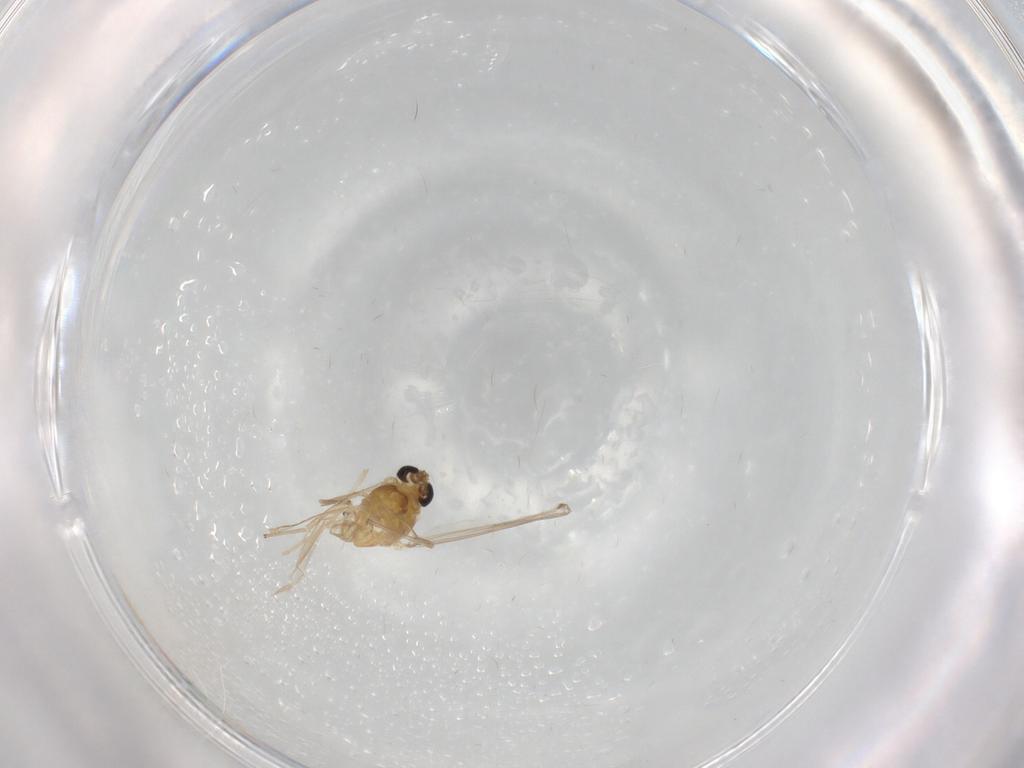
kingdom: Animalia
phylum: Arthropoda
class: Insecta
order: Diptera
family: Chironomidae
